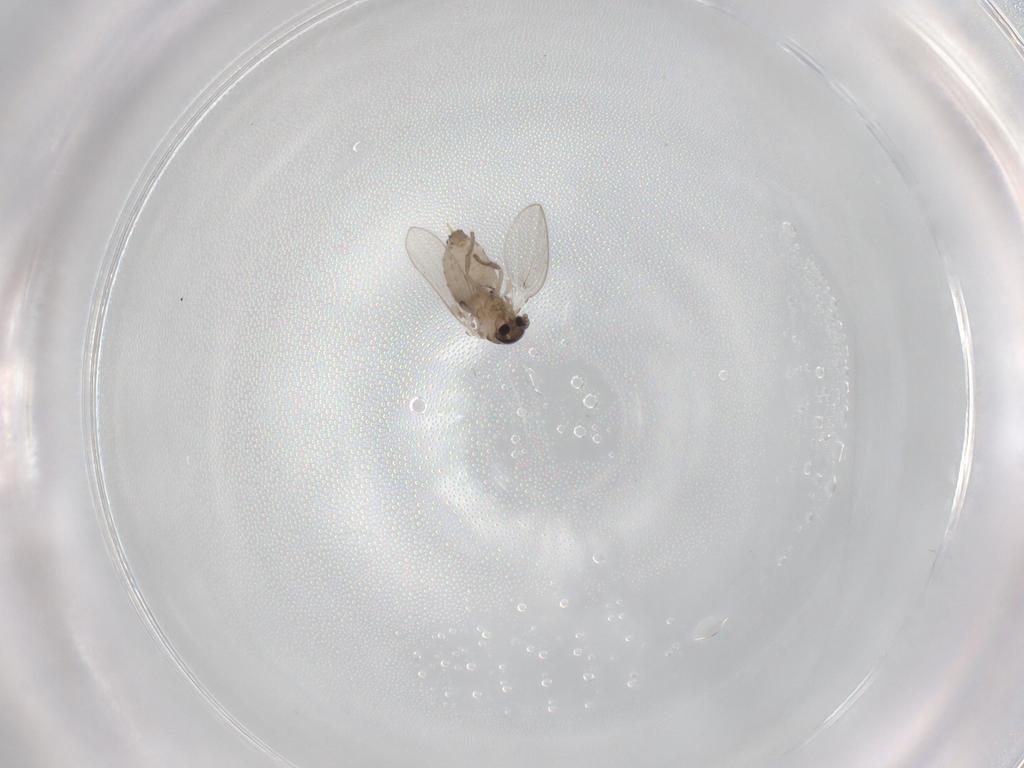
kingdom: Animalia
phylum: Arthropoda
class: Insecta
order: Diptera
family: Psychodidae
